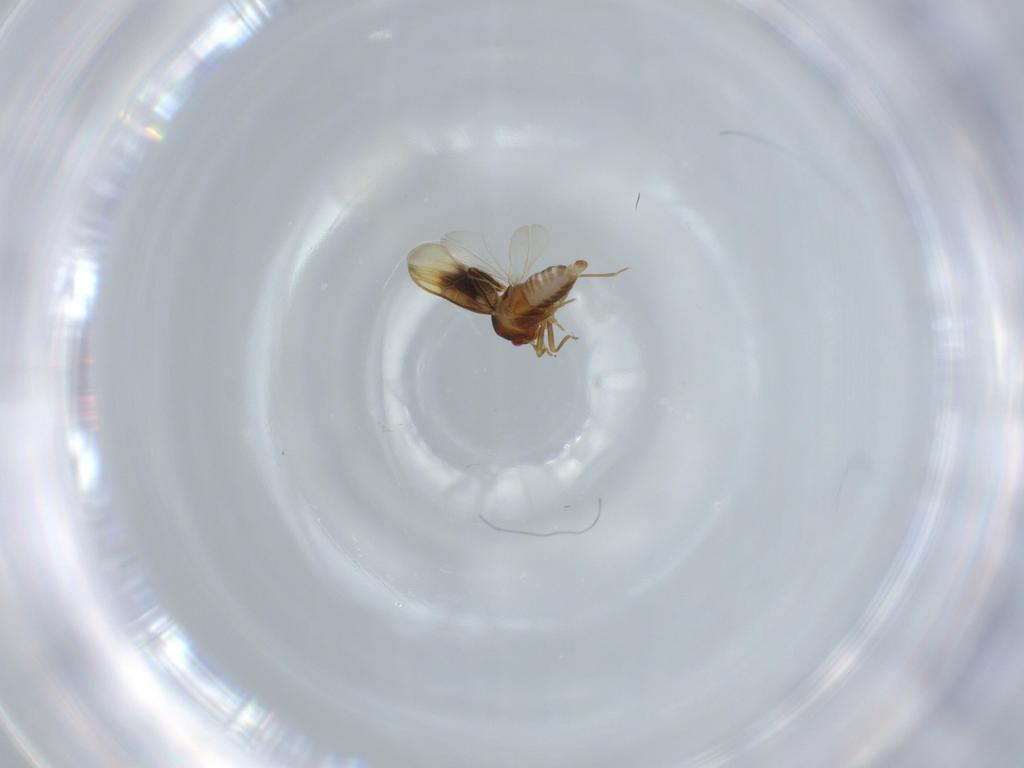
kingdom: Animalia
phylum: Arthropoda
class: Insecta
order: Hemiptera
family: Ceratocombidae
